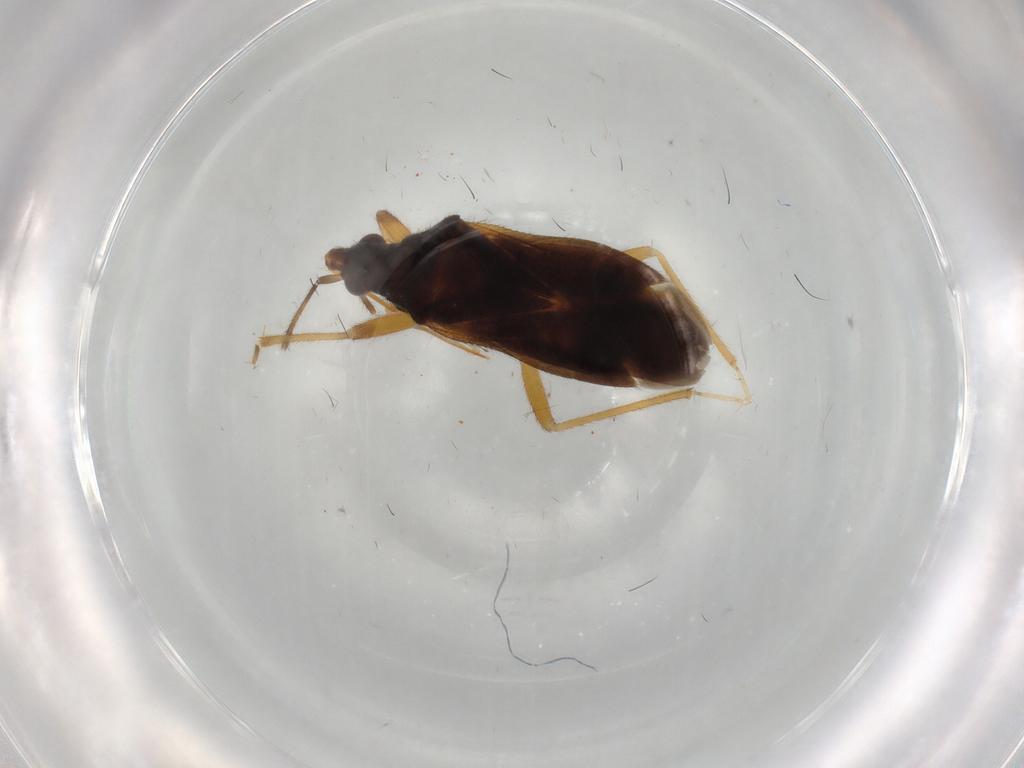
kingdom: Animalia
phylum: Arthropoda
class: Insecta
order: Hemiptera
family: Anthocoridae
